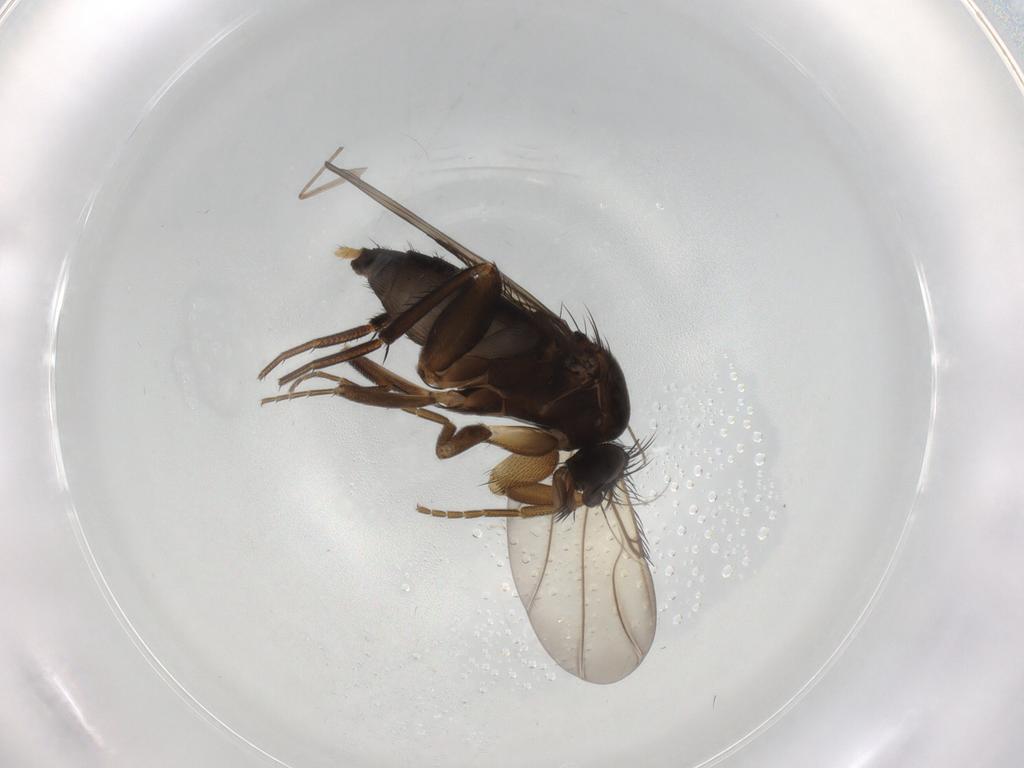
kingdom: Animalia
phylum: Arthropoda
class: Insecta
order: Diptera
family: Phoridae
